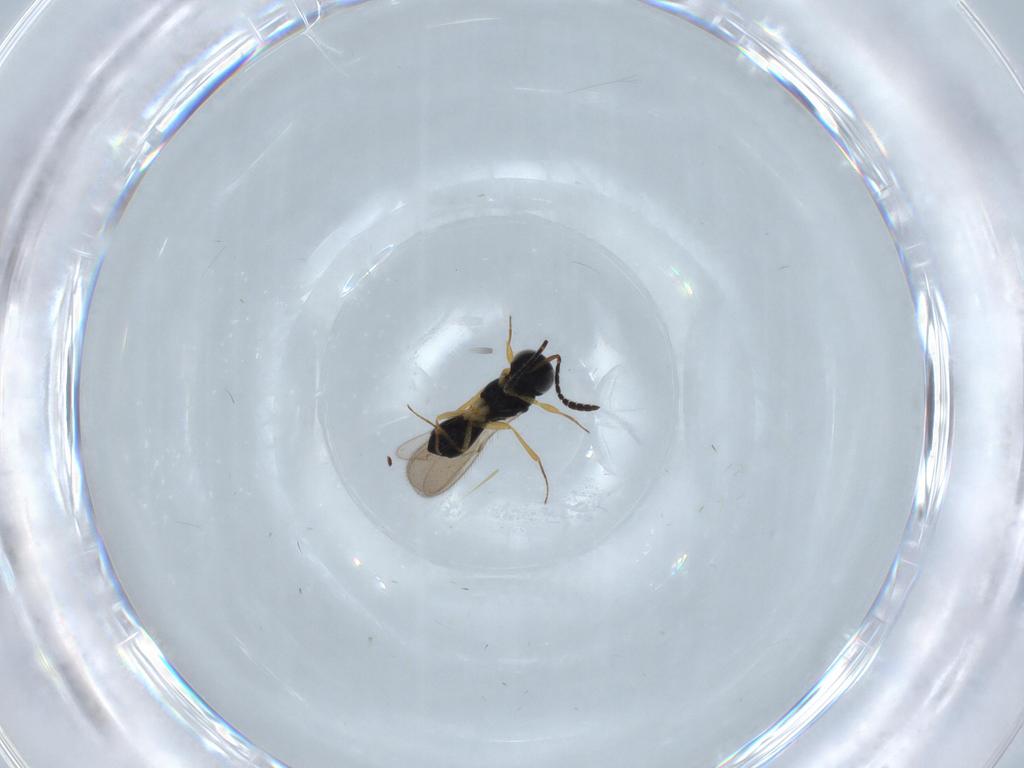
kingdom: Animalia
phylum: Arthropoda
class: Insecta
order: Hymenoptera
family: Scelionidae
